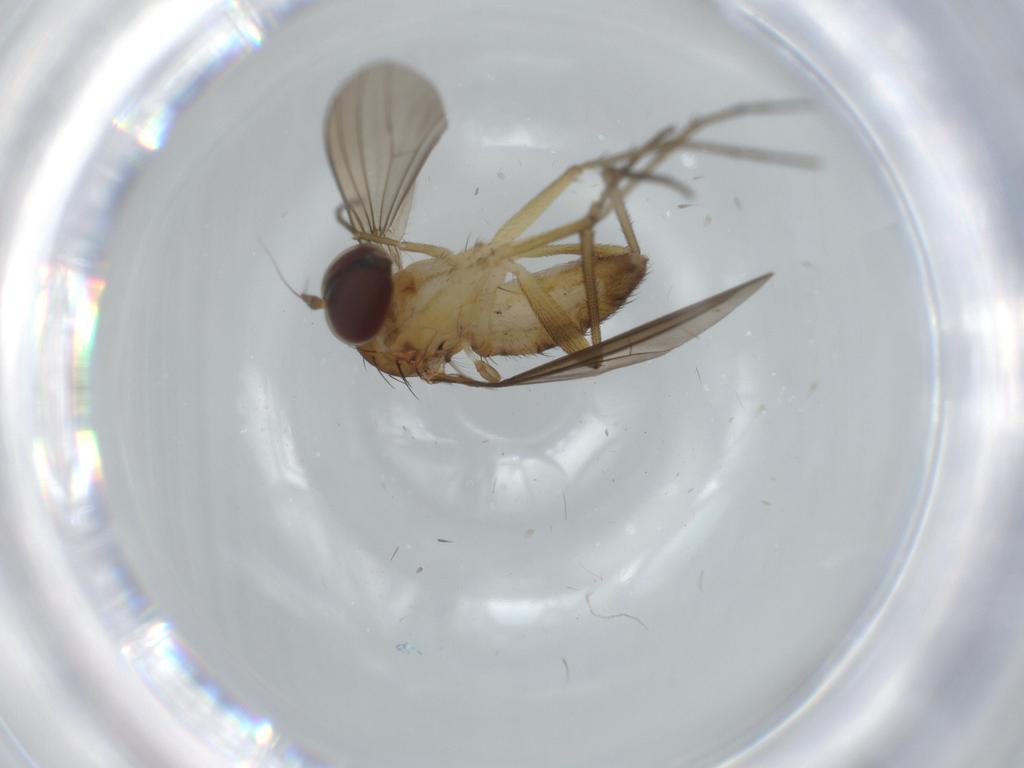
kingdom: Animalia
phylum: Arthropoda
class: Insecta
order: Diptera
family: Dolichopodidae
